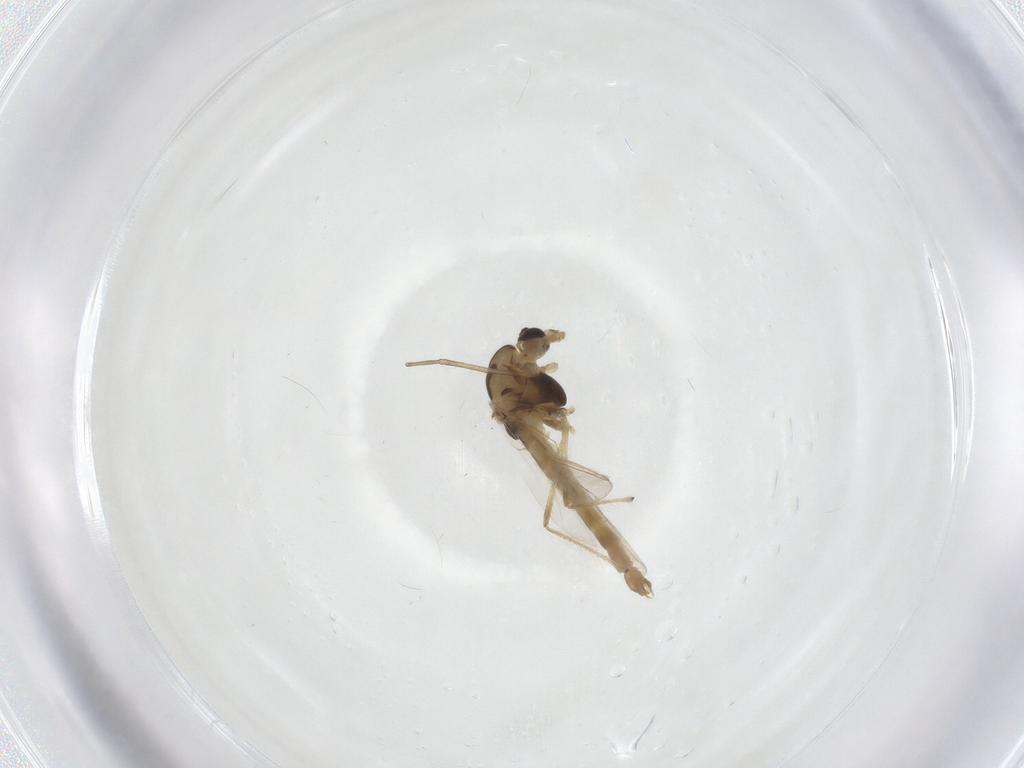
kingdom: Animalia
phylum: Arthropoda
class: Insecta
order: Diptera
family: Chironomidae
